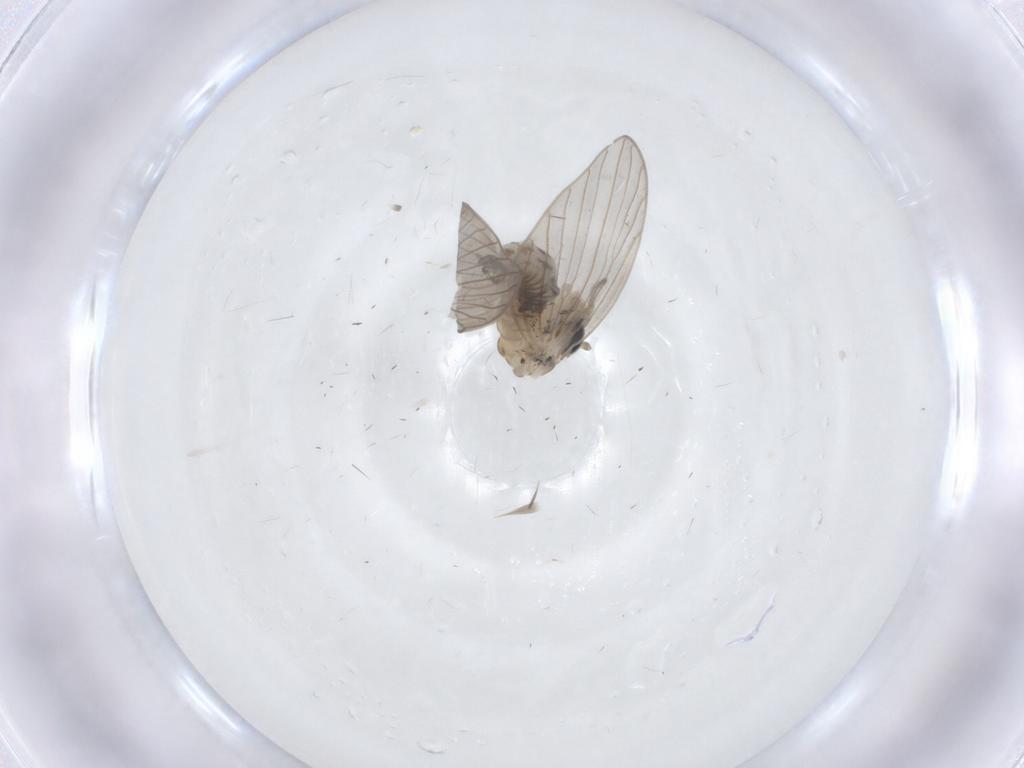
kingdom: Animalia
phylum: Arthropoda
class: Insecta
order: Diptera
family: Psychodidae
